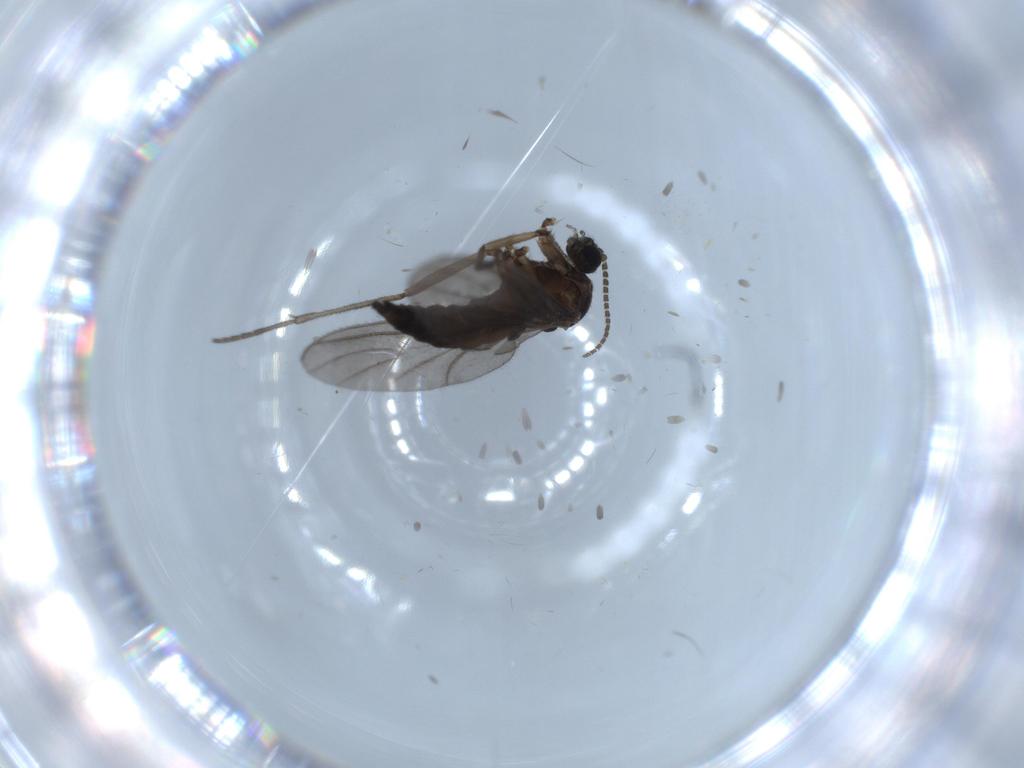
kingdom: Animalia
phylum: Arthropoda
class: Insecta
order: Diptera
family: Sciaridae
